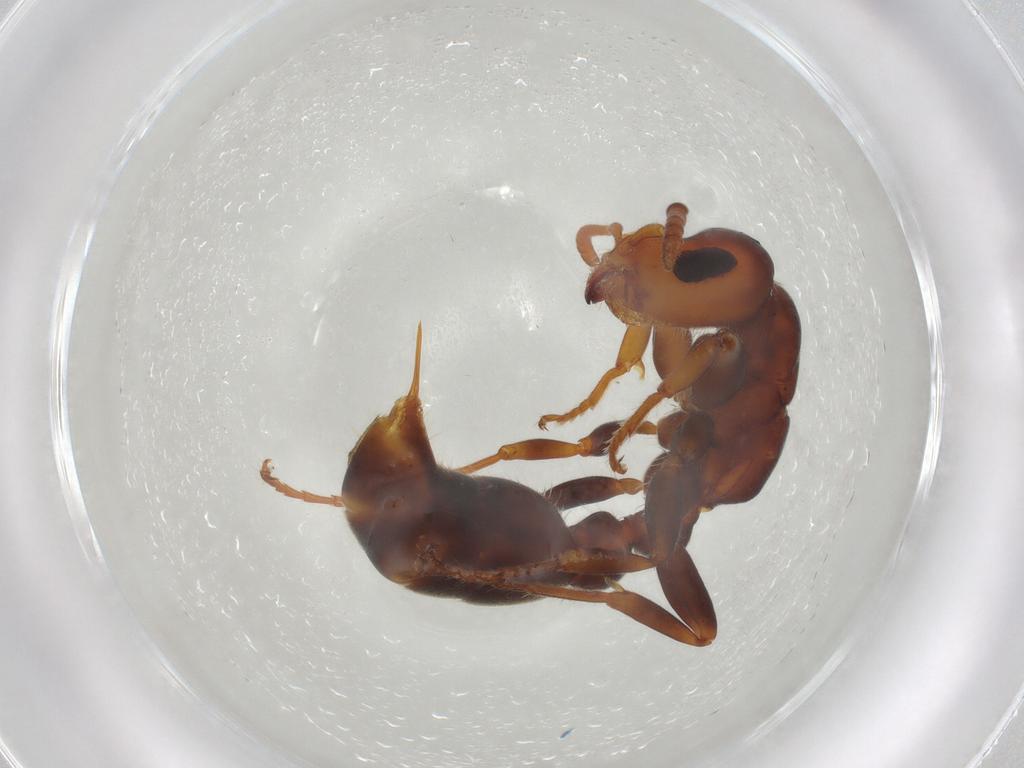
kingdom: Animalia
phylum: Arthropoda
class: Insecta
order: Hymenoptera
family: Formicidae
